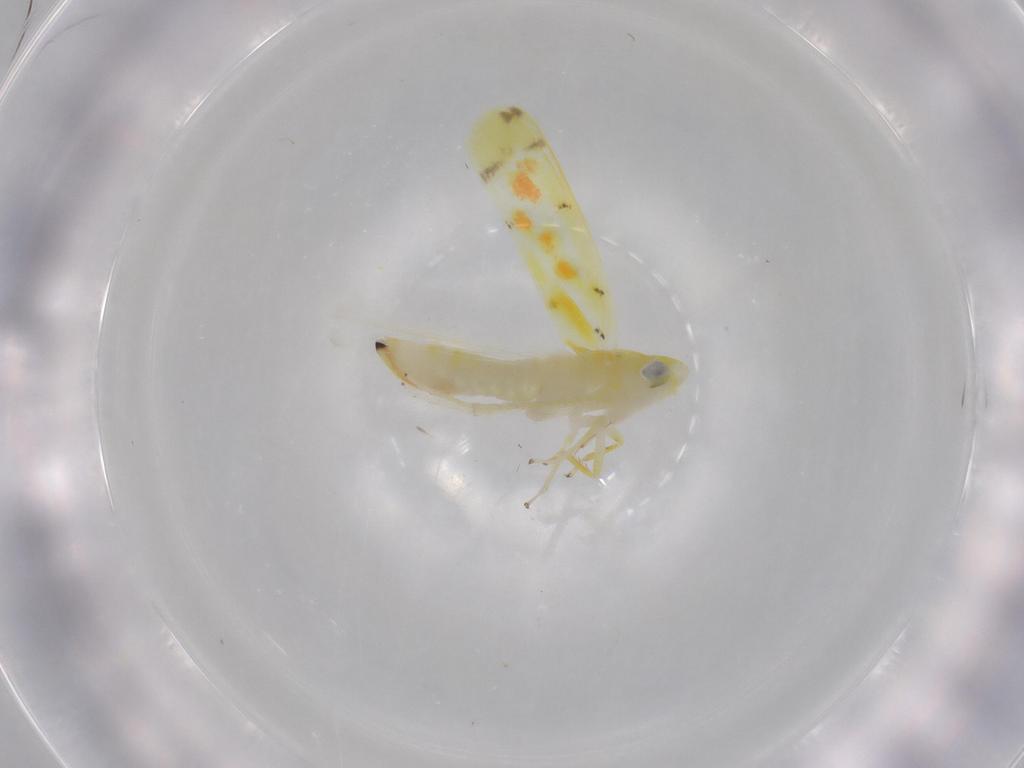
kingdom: Animalia
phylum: Arthropoda
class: Insecta
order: Hemiptera
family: Cicadellidae
